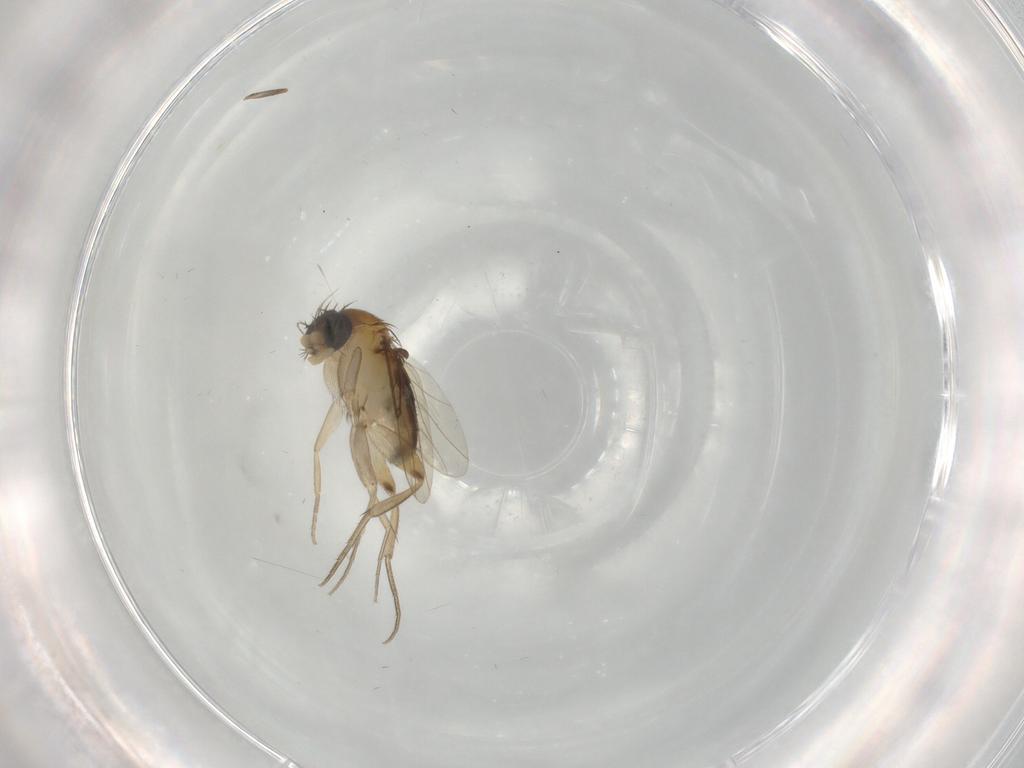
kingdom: Animalia
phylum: Arthropoda
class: Insecta
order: Diptera
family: Phoridae
